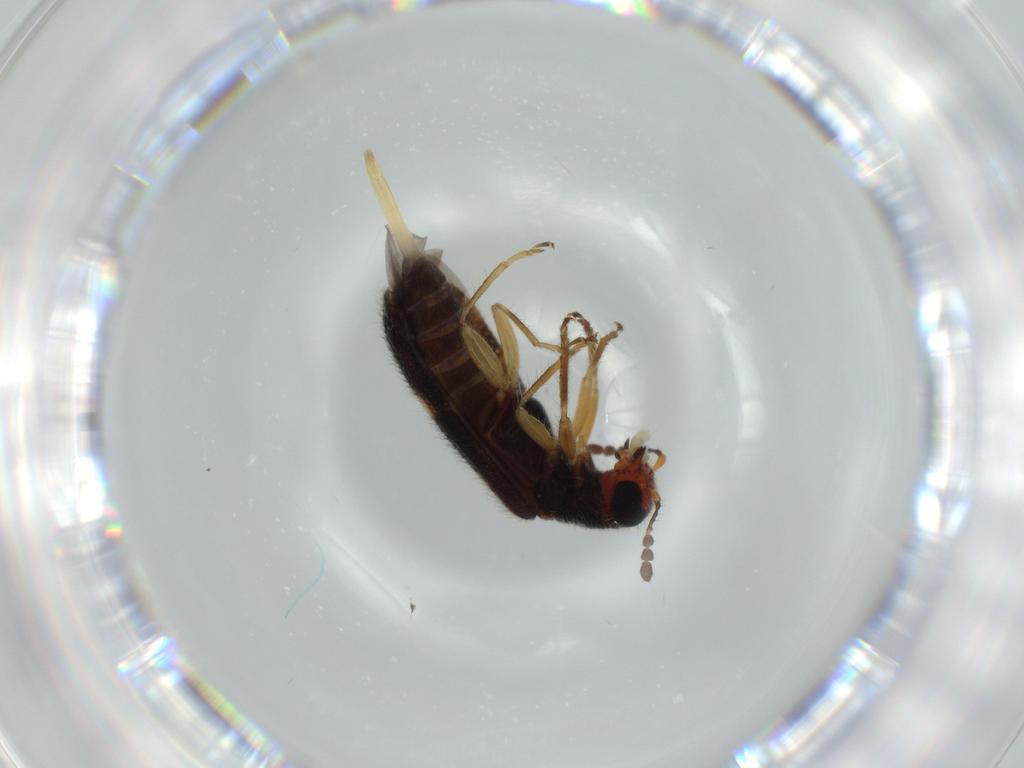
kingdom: Animalia
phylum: Arthropoda
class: Insecta
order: Coleoptera
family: Cleridae
